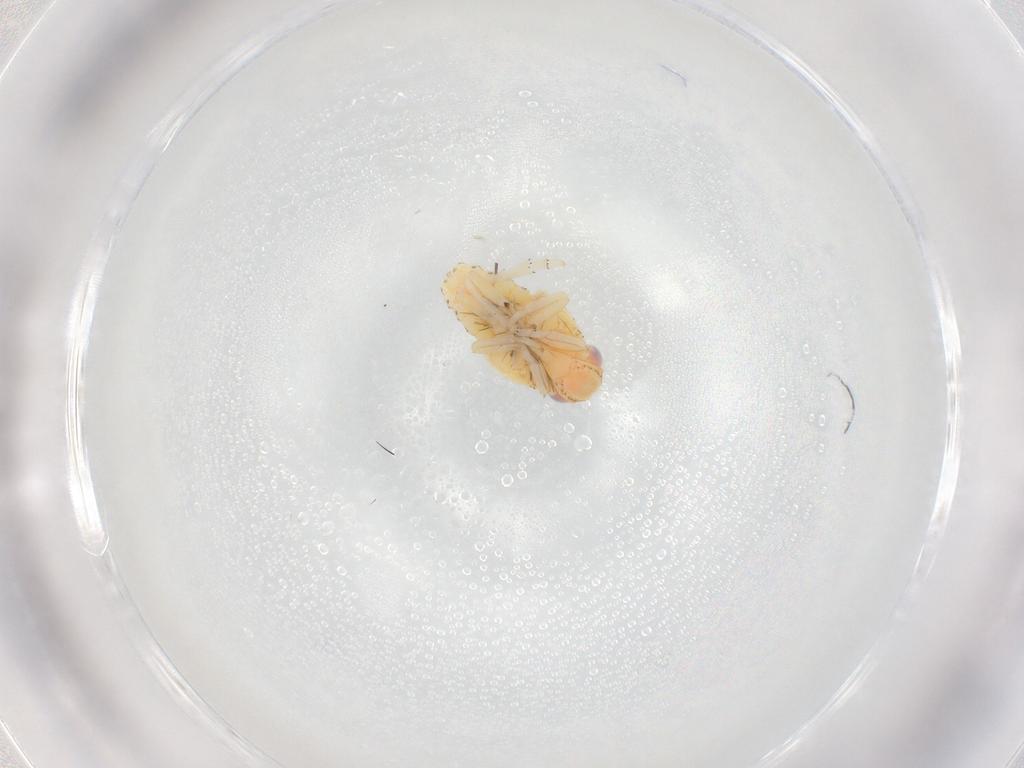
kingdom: Animalia
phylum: Arthropoda
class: Insecta
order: Hemiptera
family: Tropiduchidae
